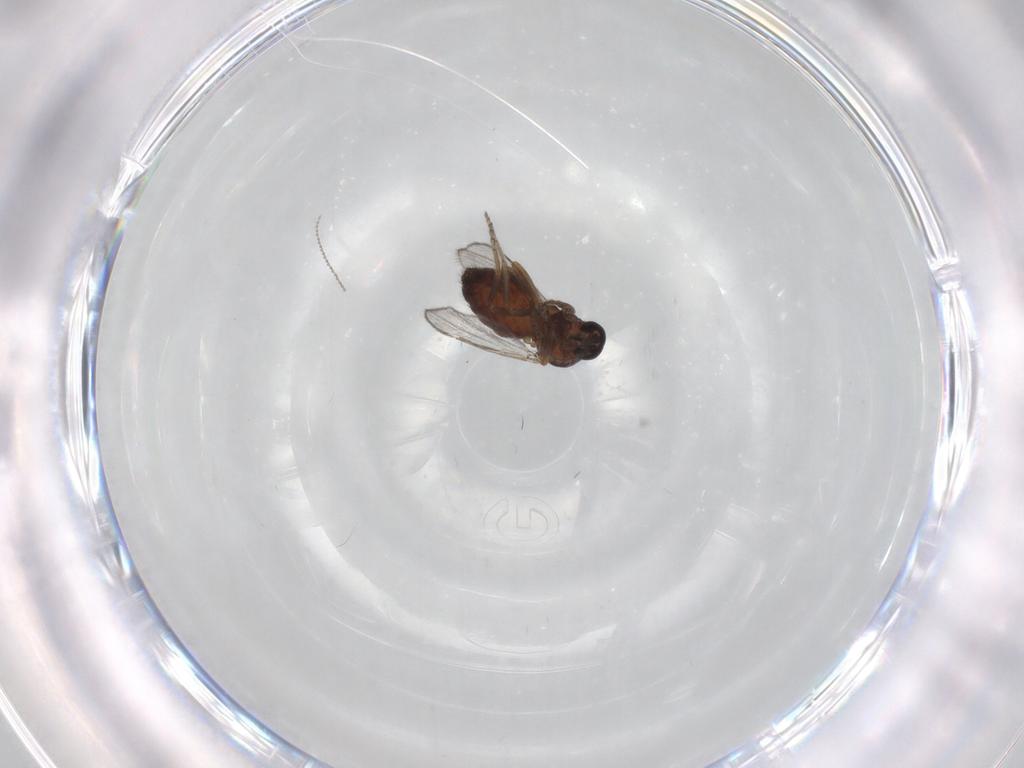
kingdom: Animalia
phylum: Arthropoda
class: Insecta
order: Diptera
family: Ceratopogonidae
